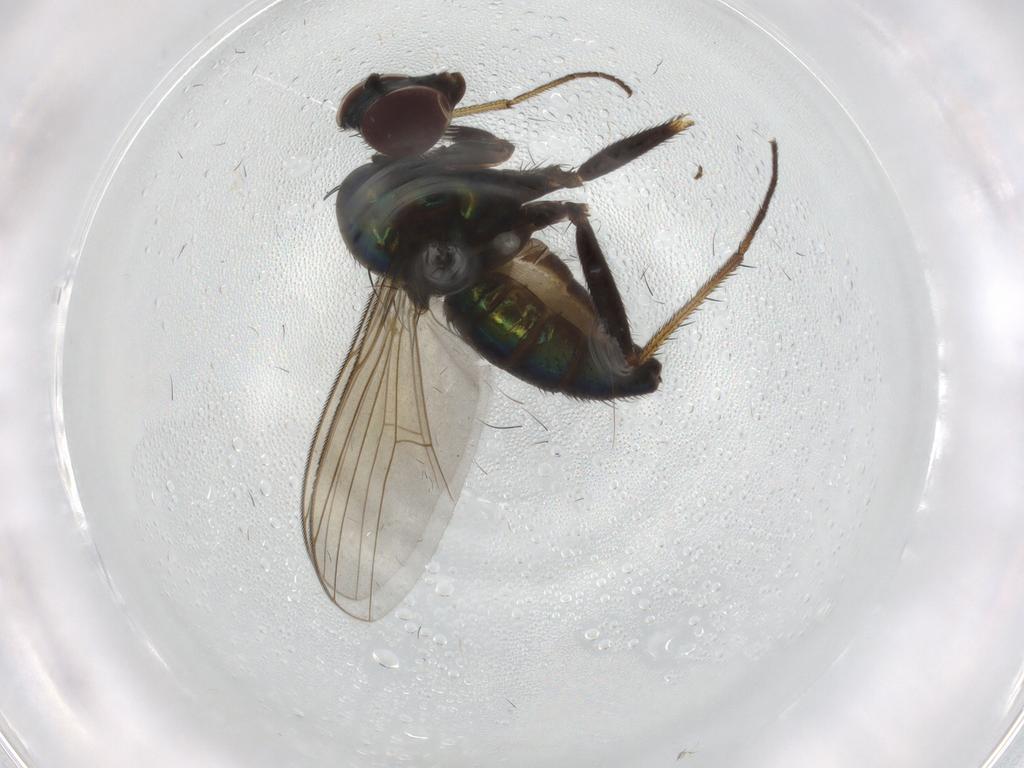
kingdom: Animalia
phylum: Arthropoda
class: Insecta
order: Diptera
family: Dolichopodidae
